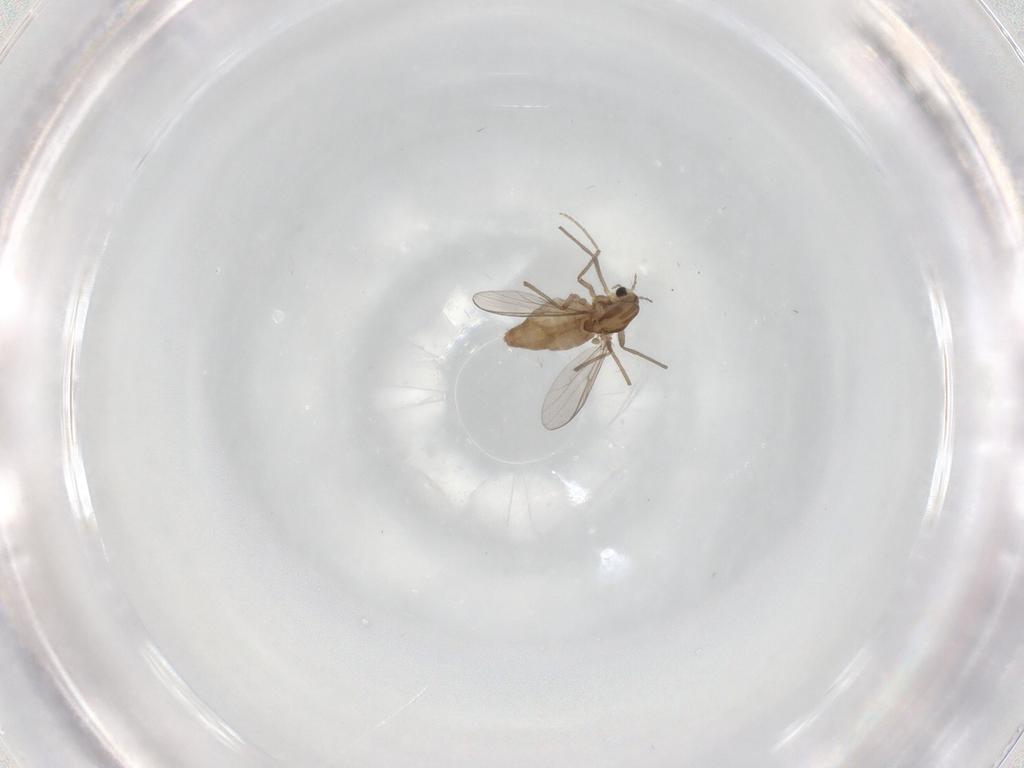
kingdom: Animalia
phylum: Arthropoda
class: Insecta
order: Diptera
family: Chironomidae
